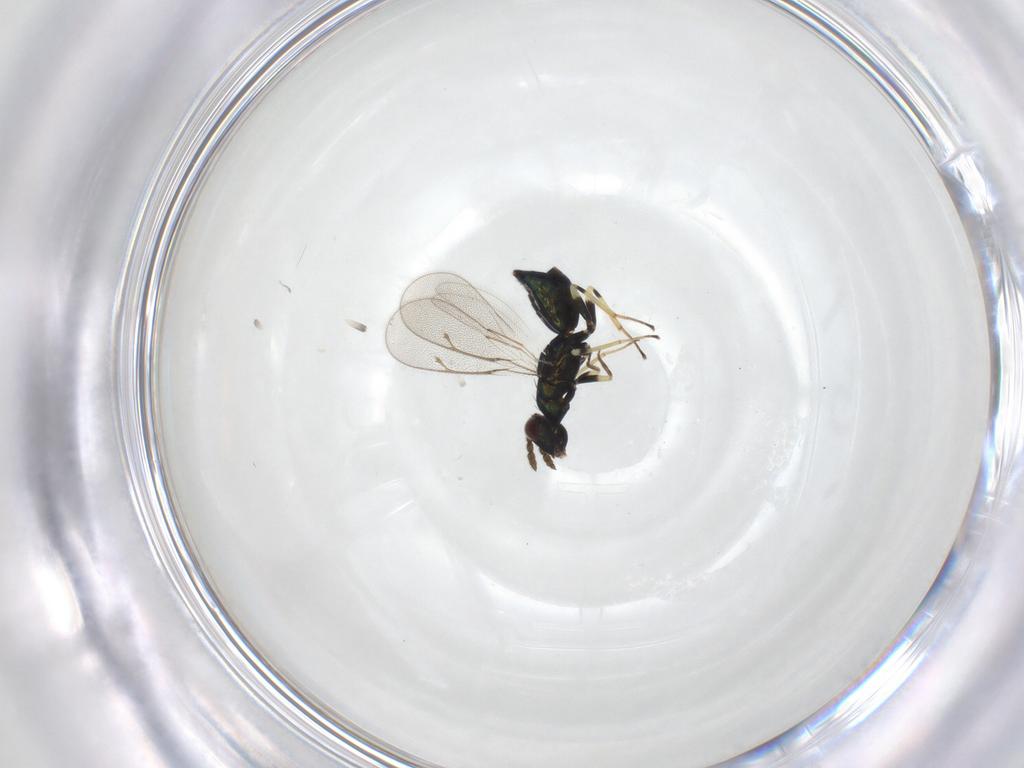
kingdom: Animalia
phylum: Arthropoda
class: Insecta
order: Hymenoptera
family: Eulophidae
